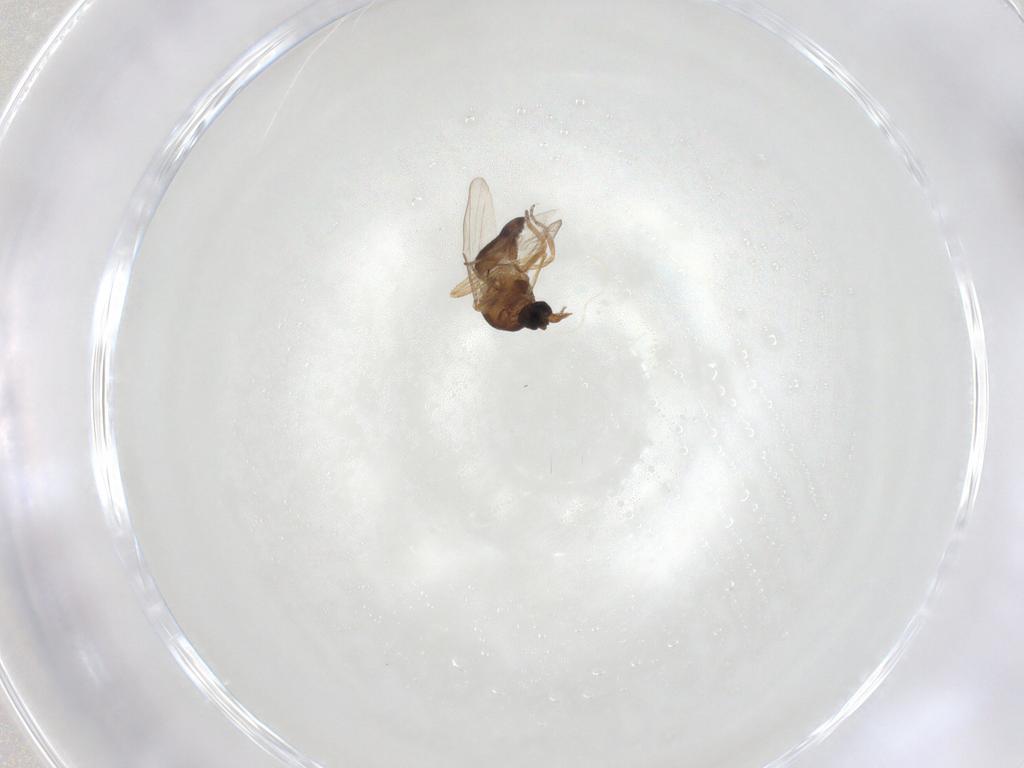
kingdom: Animalia
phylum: Arthropoda
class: Insecta
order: Diptera
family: Ceratopogonidae
